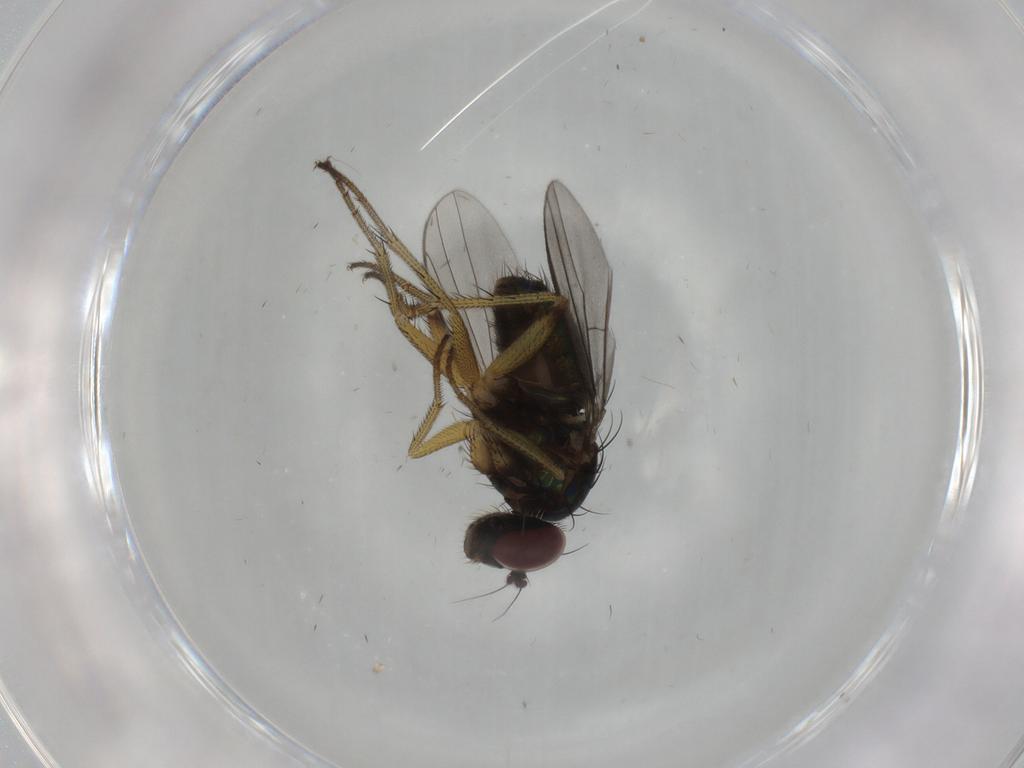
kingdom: Animalia
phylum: Arthropoda
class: Insecta
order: Diptera
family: Dolichopodidae
